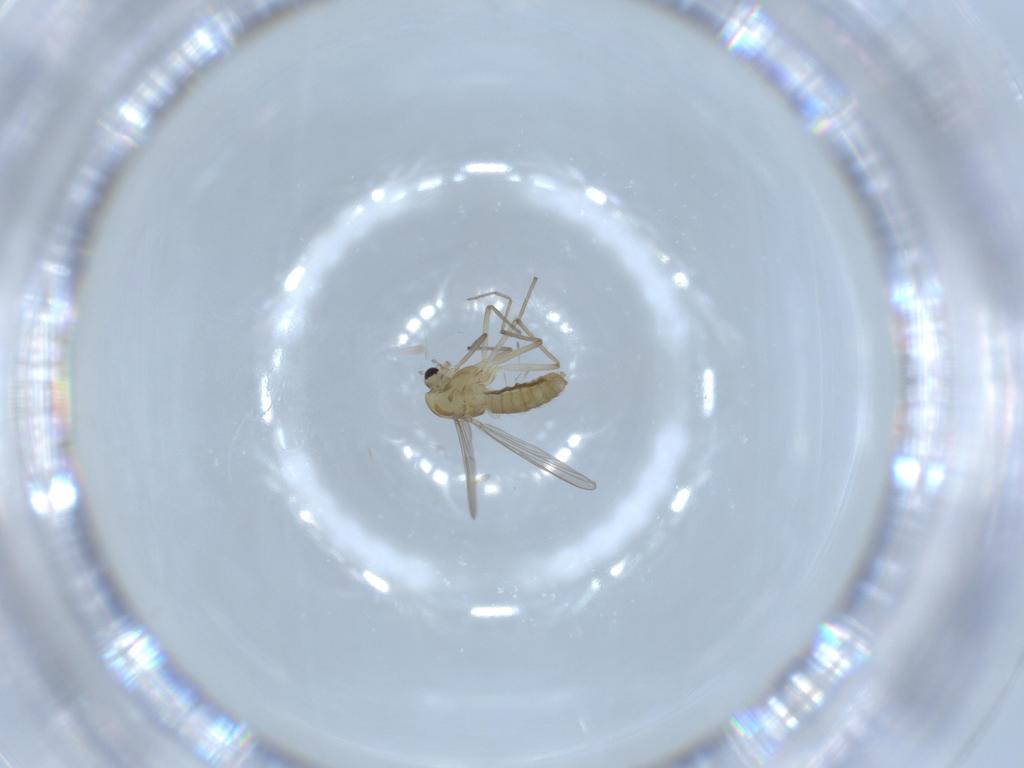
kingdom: Animalia
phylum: Arthropoda
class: Insecta
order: Diptera
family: Chironomidae
